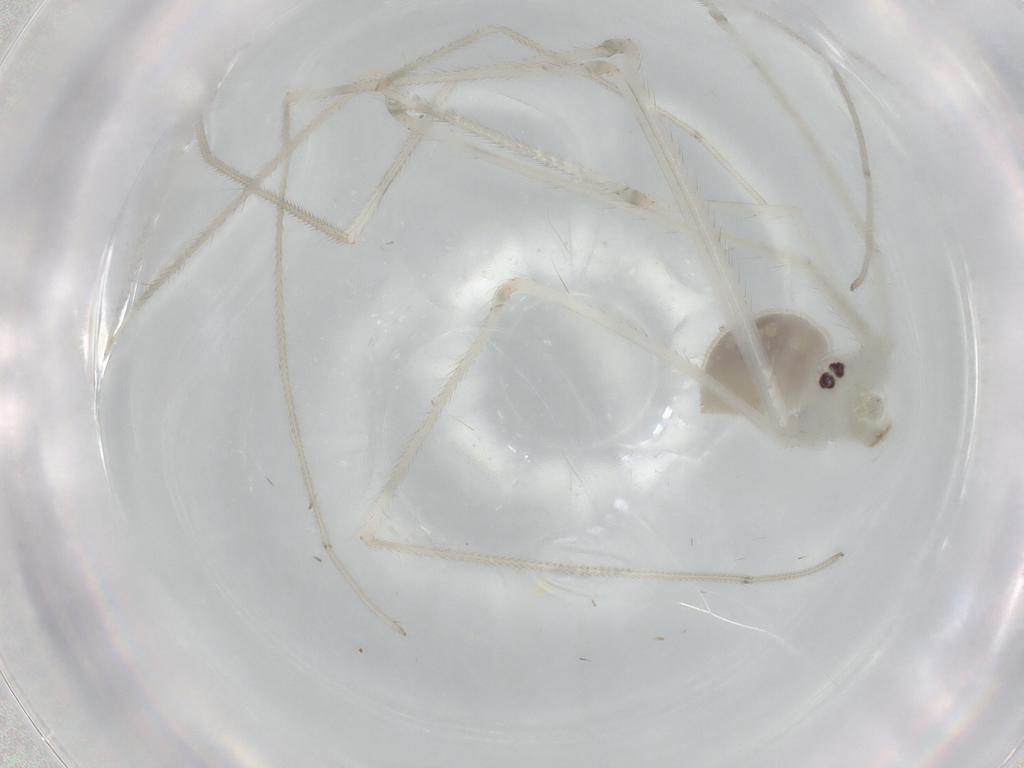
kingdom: Animalia
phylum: Arthropoda
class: Arachnida
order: Araneae
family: Pholcidae
